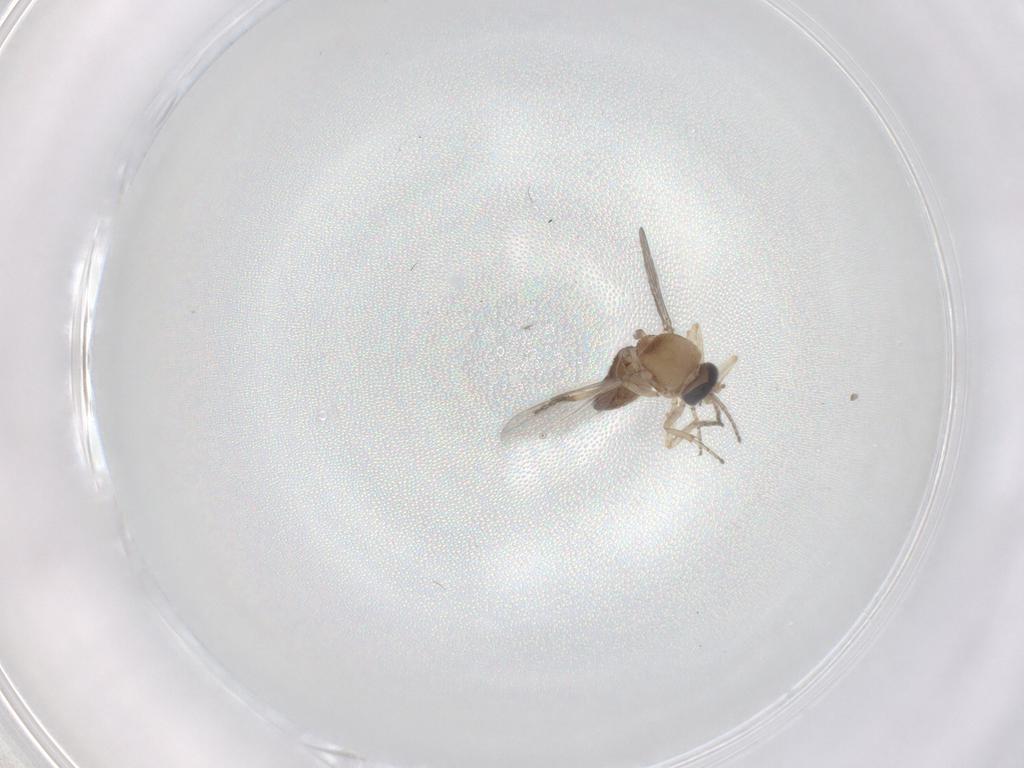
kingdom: Animalia
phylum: Arthropoda
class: Insecta
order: Diptera
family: Ceratopogonidae
